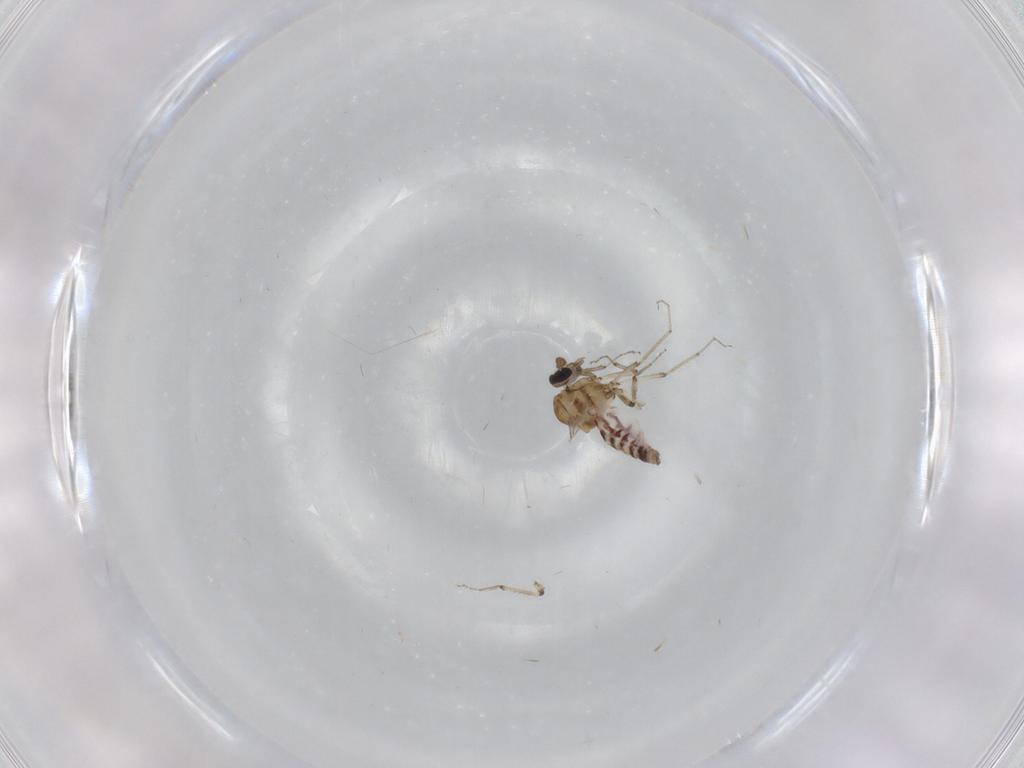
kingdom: Animalia
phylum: Arthropoda
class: Insecta
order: Diptera
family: Ceratopogonidae
